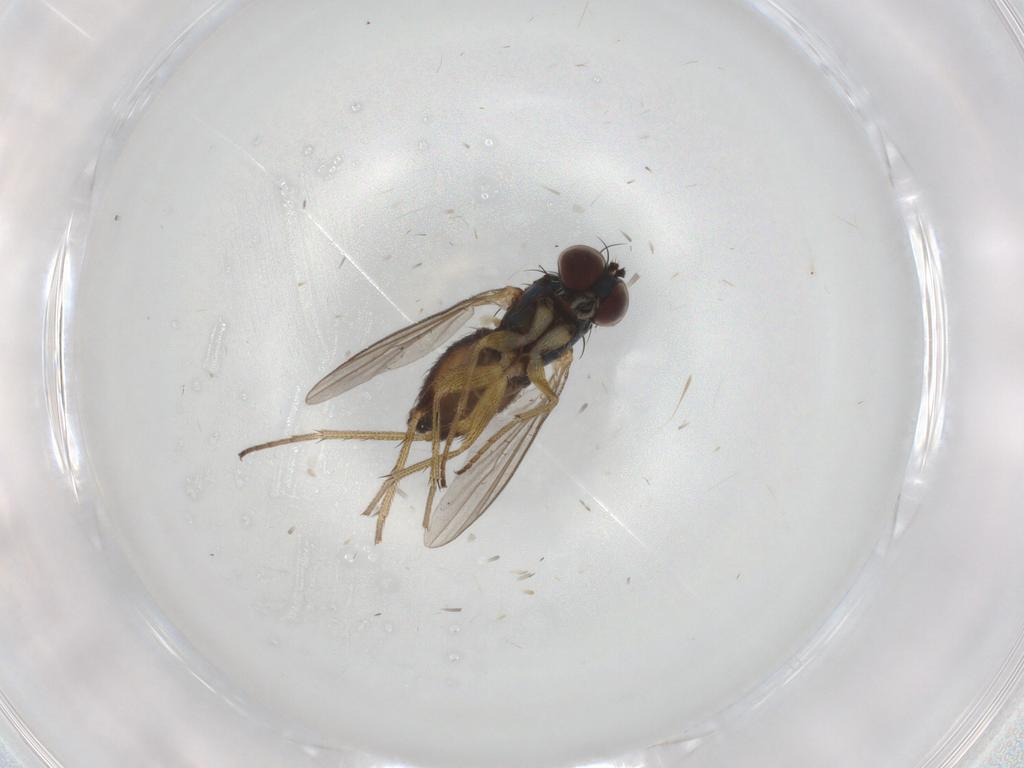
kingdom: Animalia
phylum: Arthropoda
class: Insecta
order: Diptera
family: Dolichopodidae
